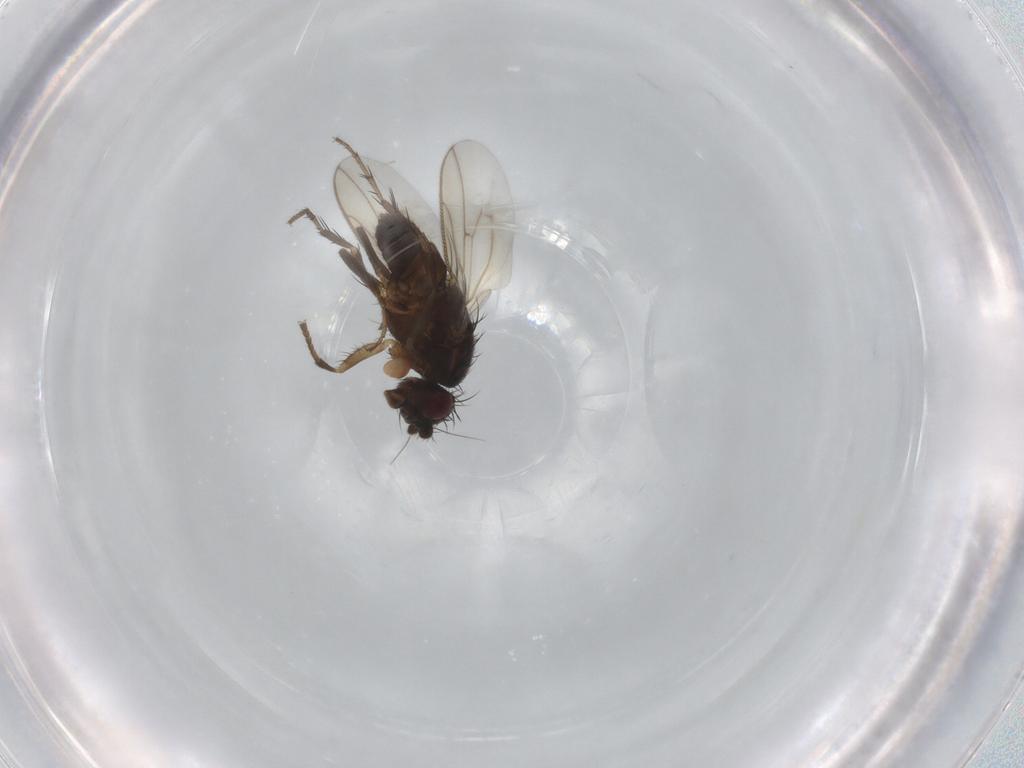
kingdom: Animalia
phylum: Arthropoda
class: Insecta
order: Diptera
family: Sphaeroceridae
